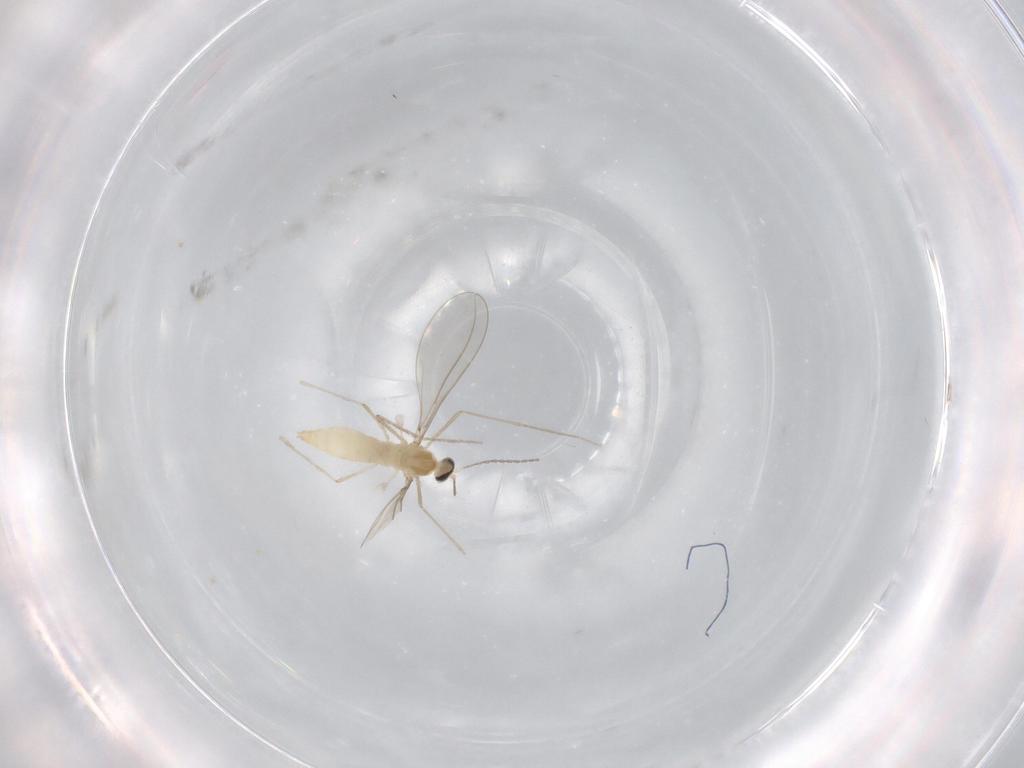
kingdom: Animalia
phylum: Arthropoda
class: Insecta
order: Diptera
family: Cecidomyiidae
